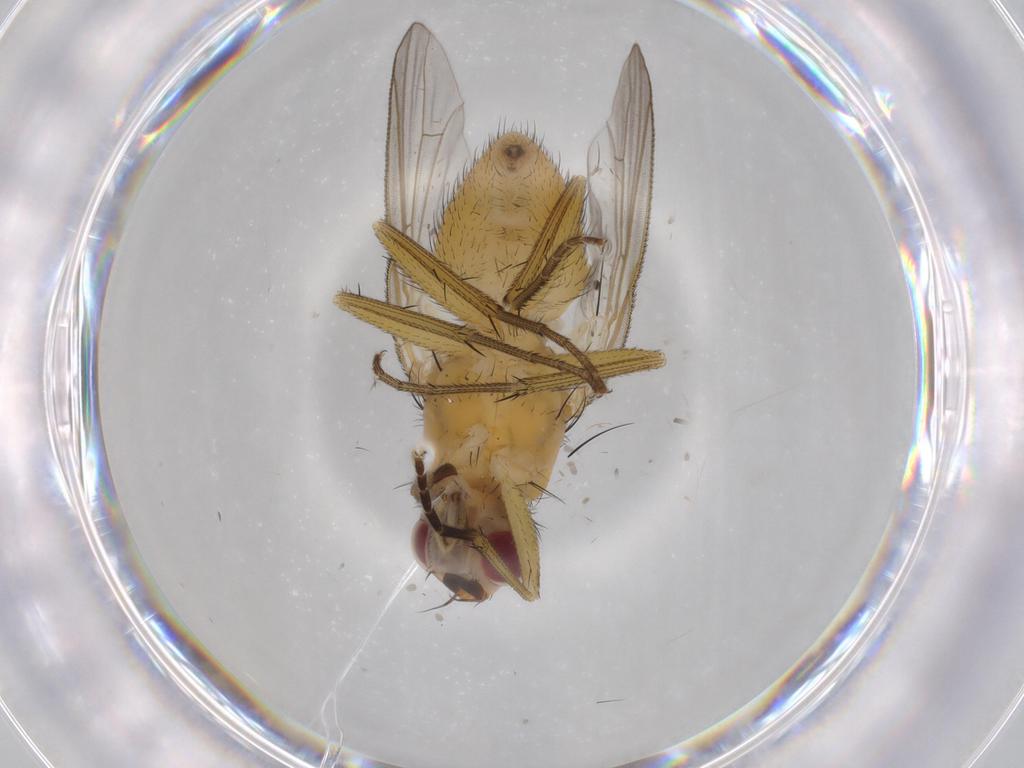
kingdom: Animalia
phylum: Arthropoda
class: Insecta
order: Diptera
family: Muscidae
